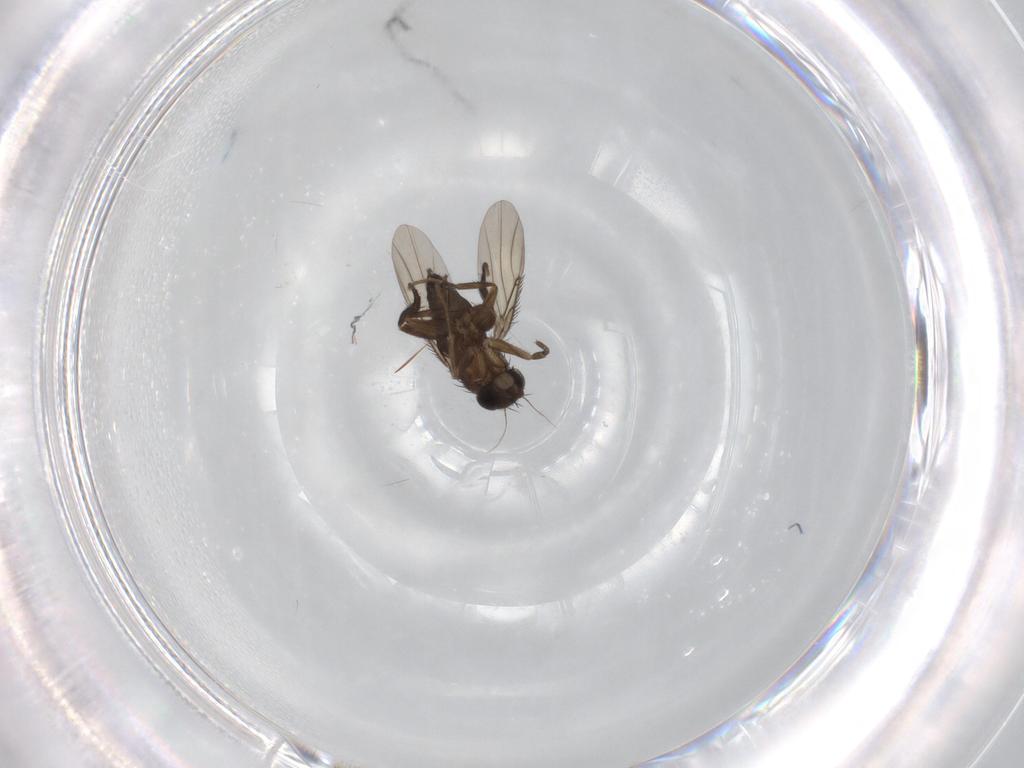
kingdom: Animalia
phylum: Arthropoda
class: Insecta
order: Diptera
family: Phoridae
